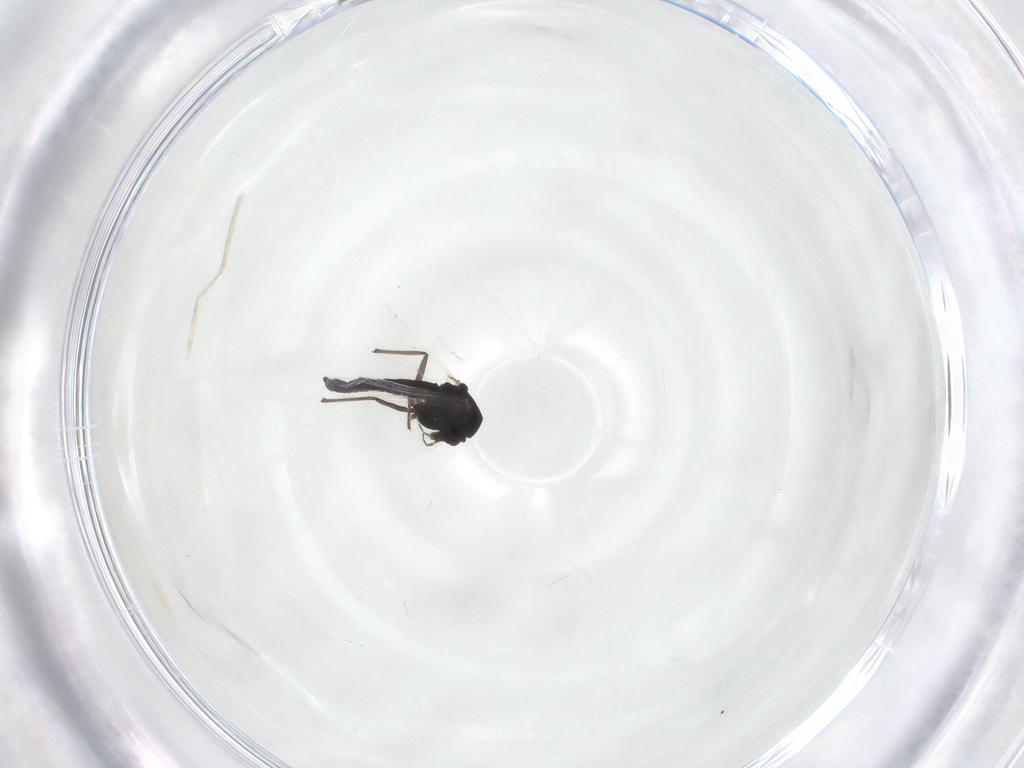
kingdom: Animalia
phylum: Arthropoda
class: Insecta
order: Diptera
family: Chironomidae
